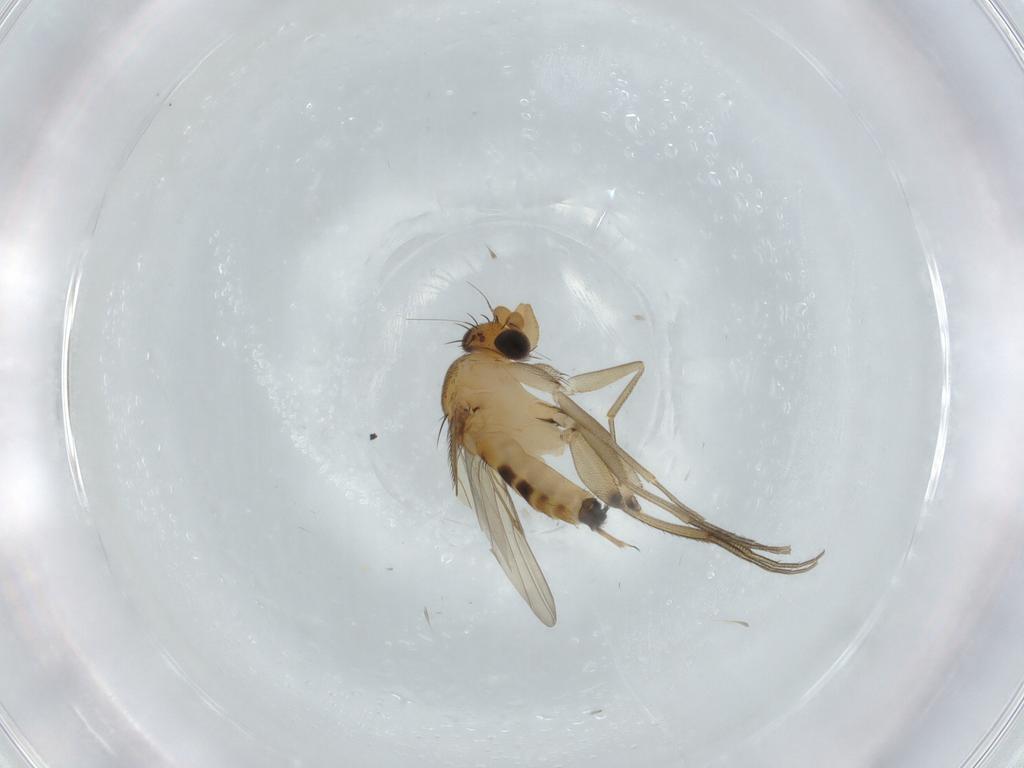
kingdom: Animalia
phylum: Arthropoda
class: Insecta
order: Diptera
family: Phoridae
